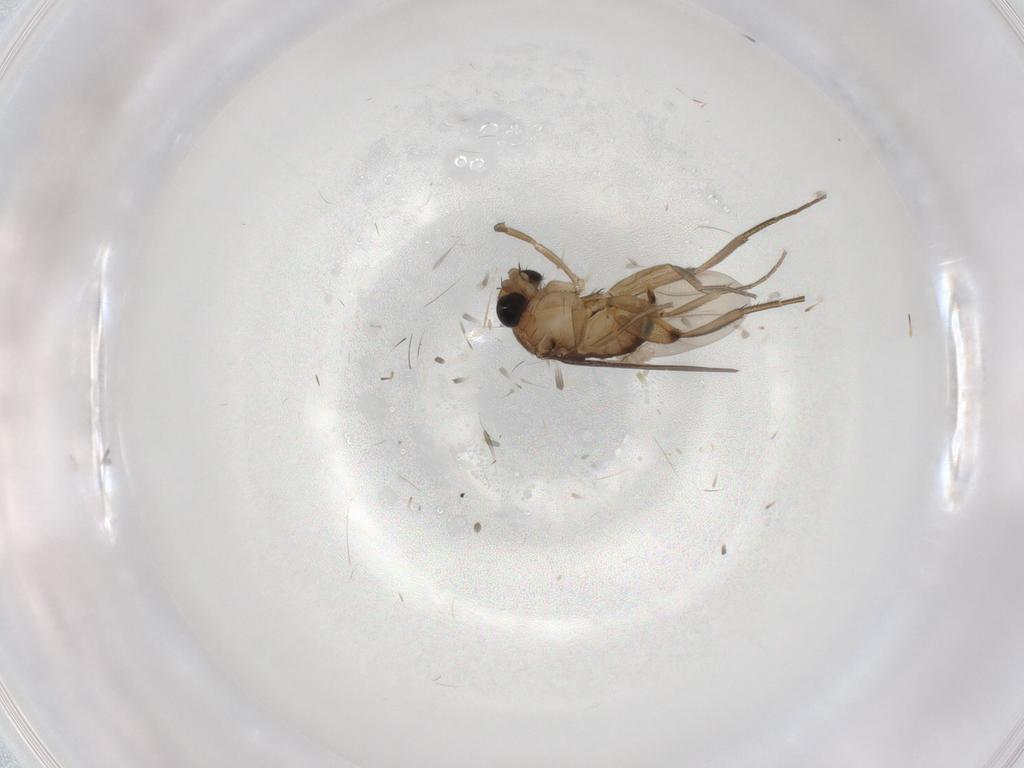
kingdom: Animalia
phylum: Arthropoda
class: Insecta
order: Diptera
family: Phoridae
